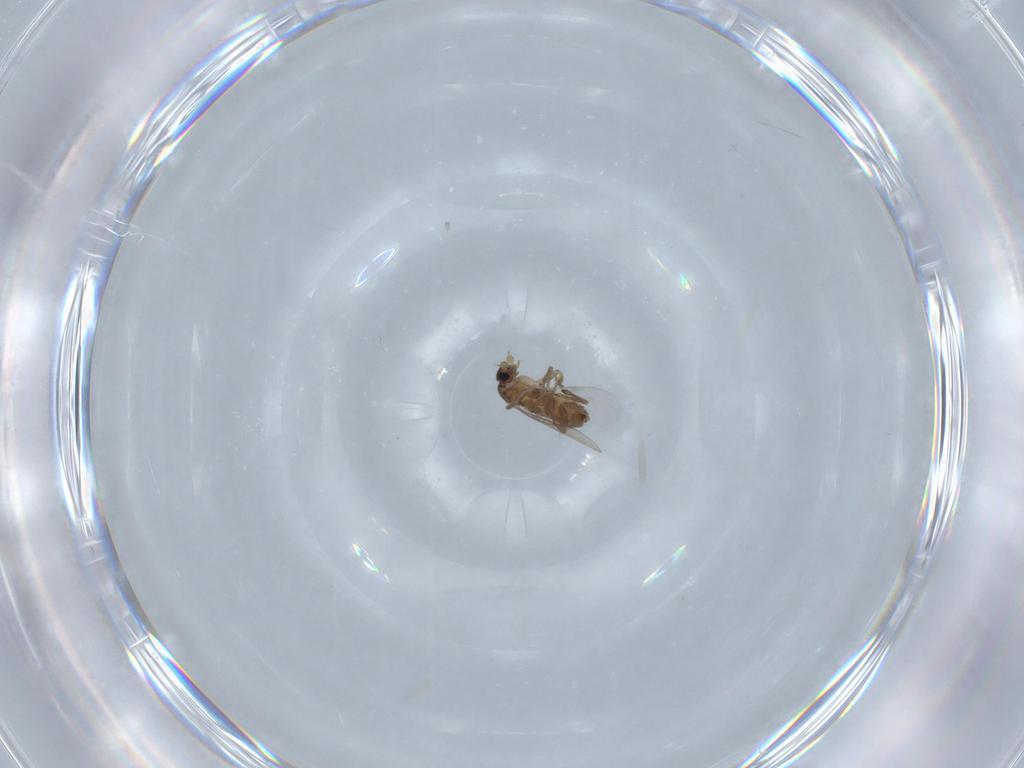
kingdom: Animalia
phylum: Arthropoda
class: Insecta
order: Diptera
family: Phoridae
